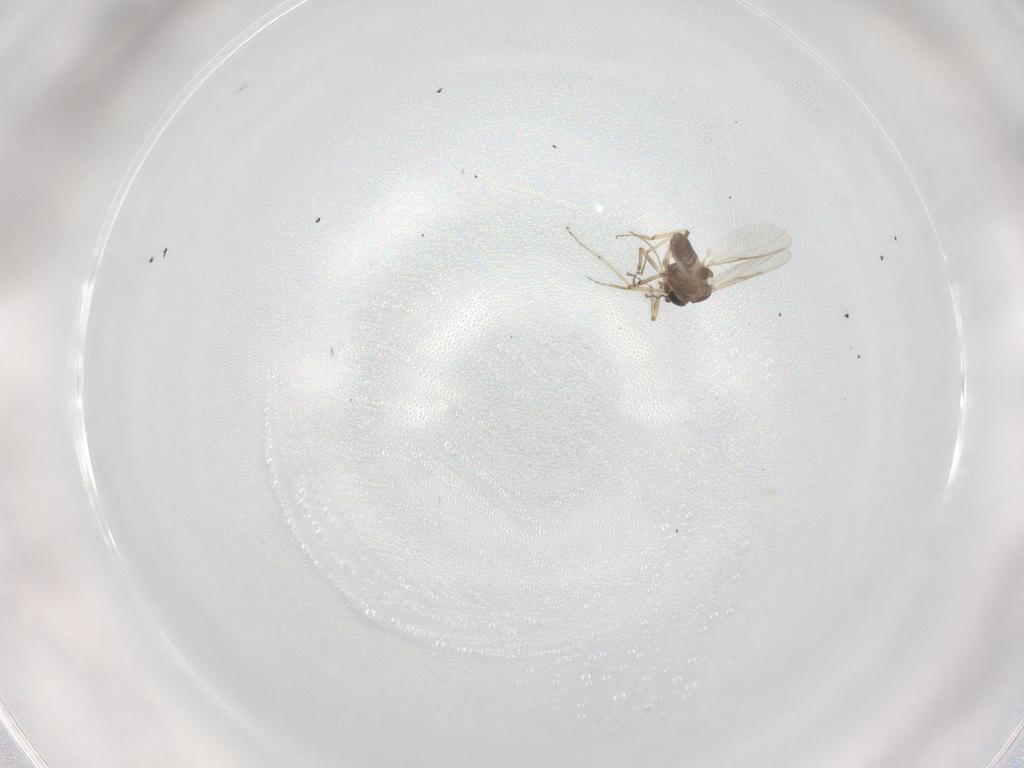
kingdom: Animalia
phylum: Arthropoda
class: Insecta
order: Diptera
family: Ceratopogonidae
